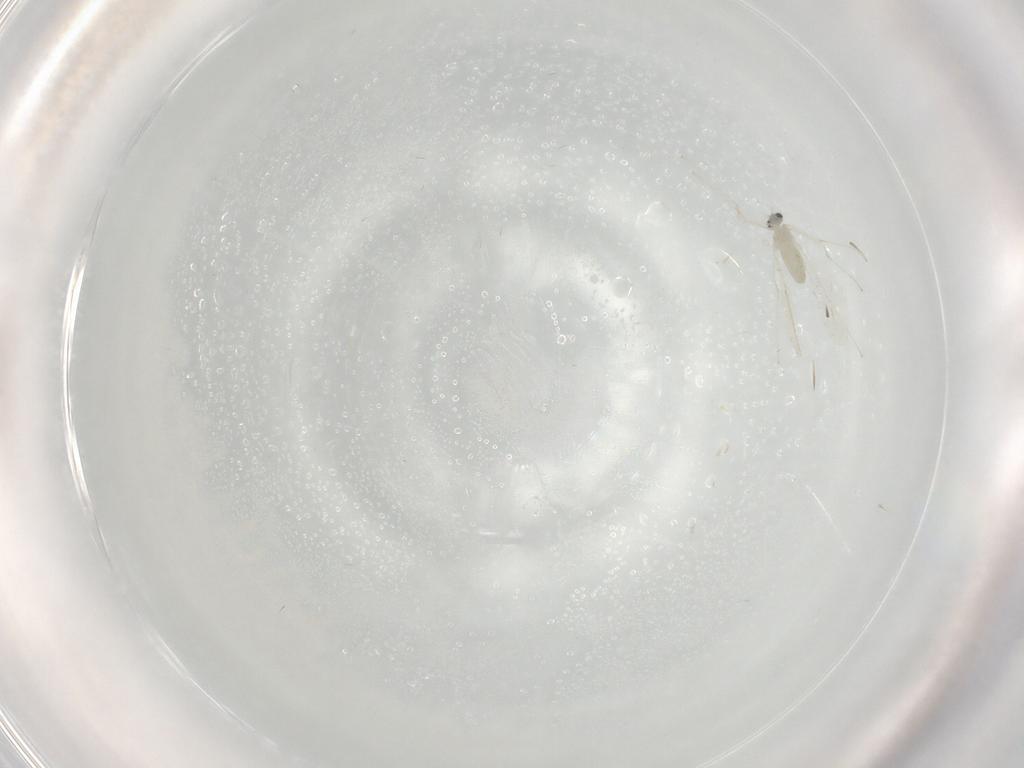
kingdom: Animalia
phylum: Arthropoda
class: Insecta
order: Diptera
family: Cecidomyiidae
